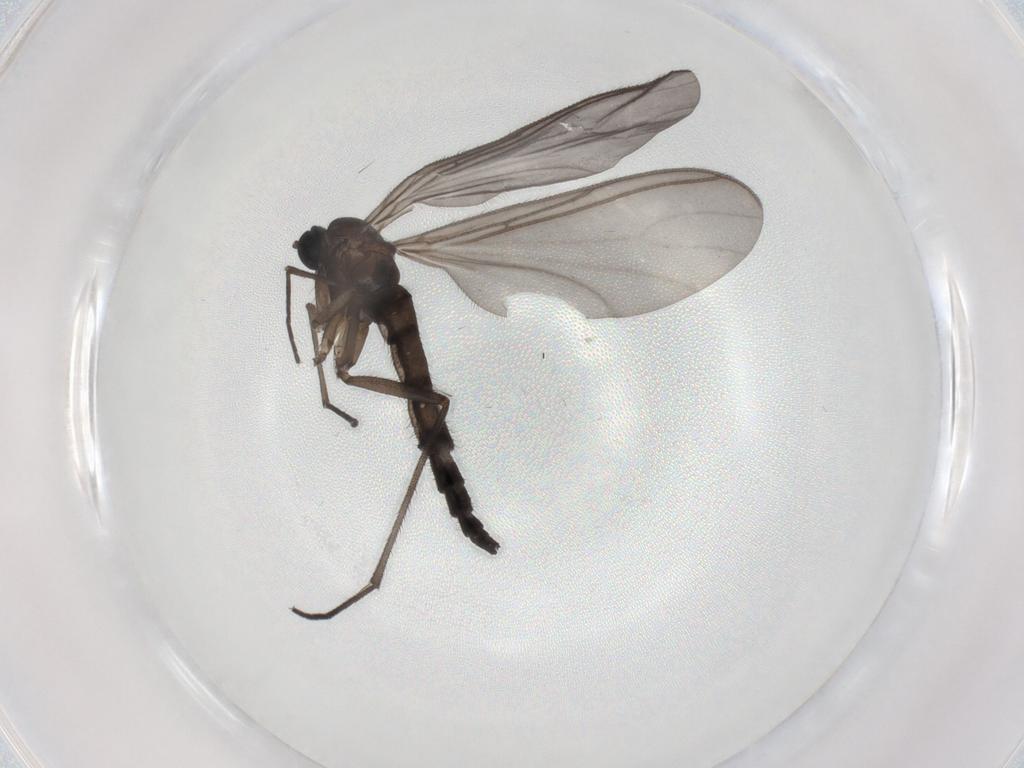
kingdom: Animalia
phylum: Arthropoda
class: Insecta
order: Diptera
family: Sciaridae
